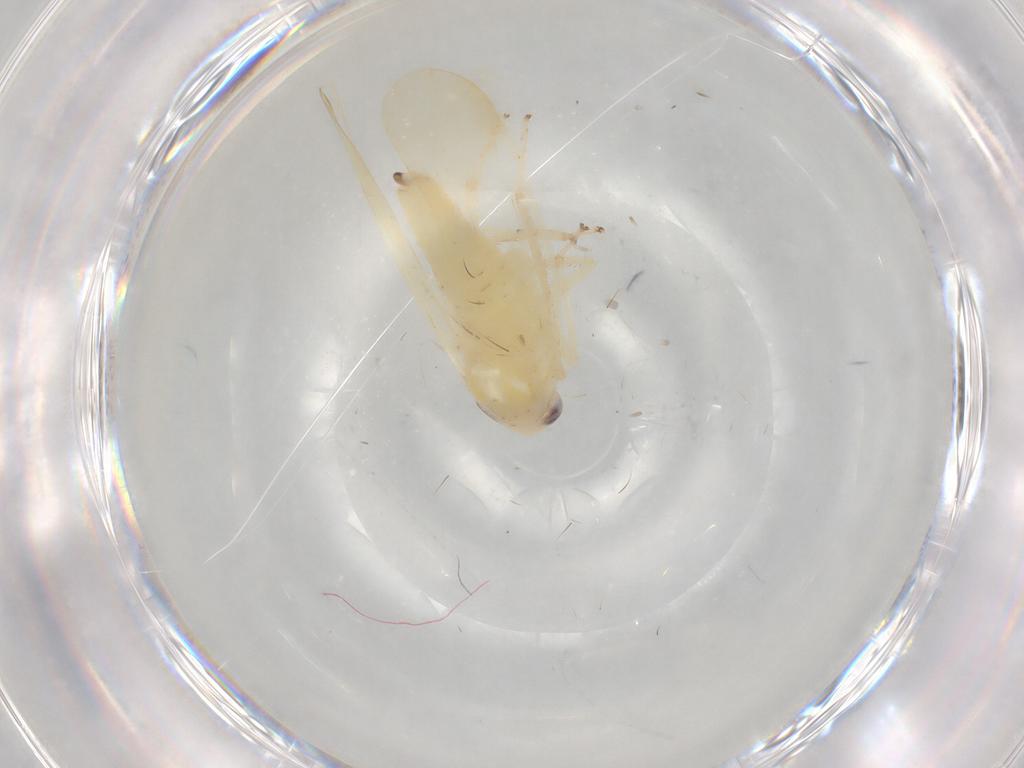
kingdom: Animalia
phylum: Arthropoda
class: Insecta
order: Hemiptera
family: Cicadellidae
